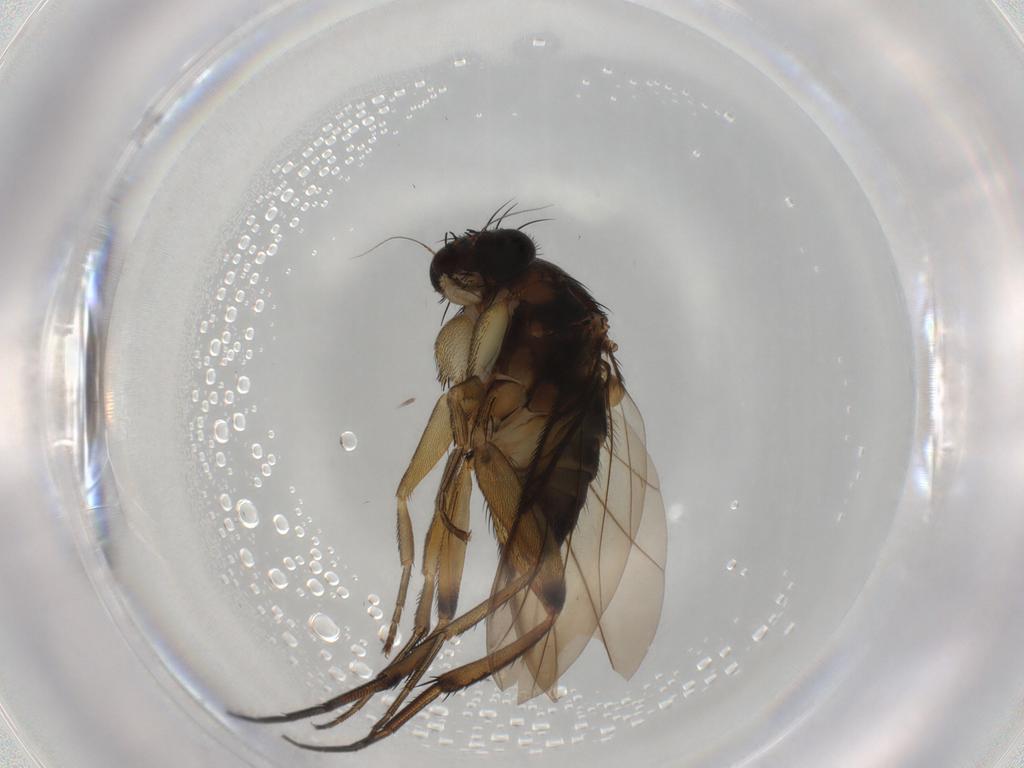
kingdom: Animalia
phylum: Arthropoda
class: Insecta
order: Diptera
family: Phoridae
